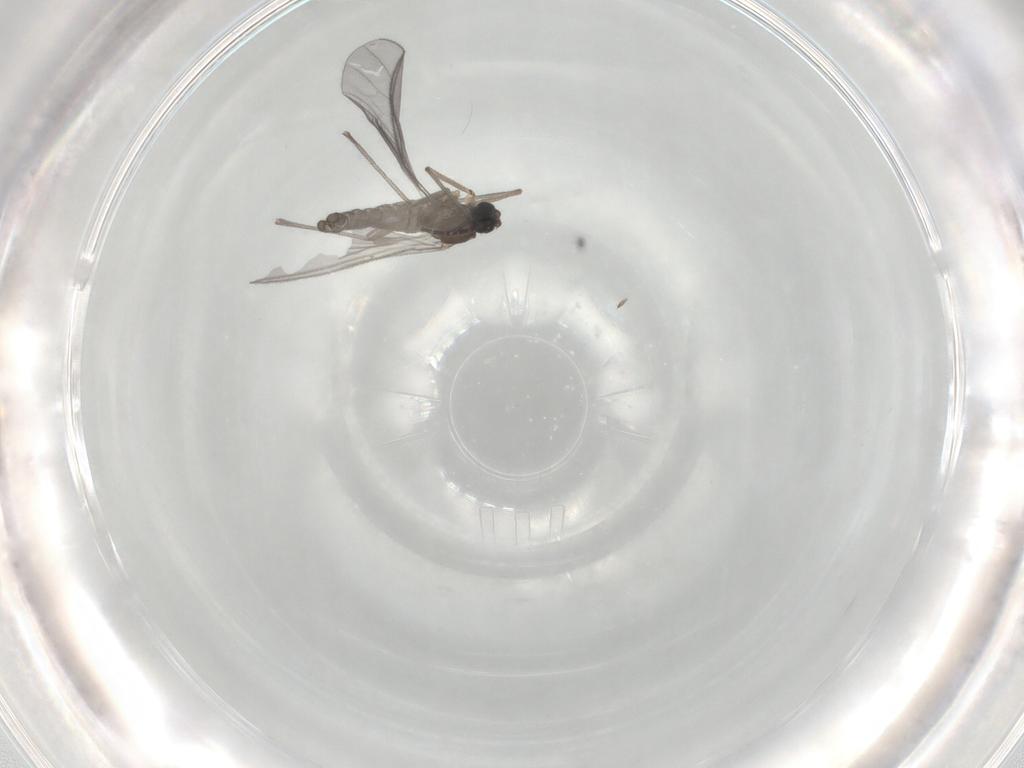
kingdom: Animalia
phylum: Arthropoda
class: Insecta
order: Diptera
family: Sciaridae
